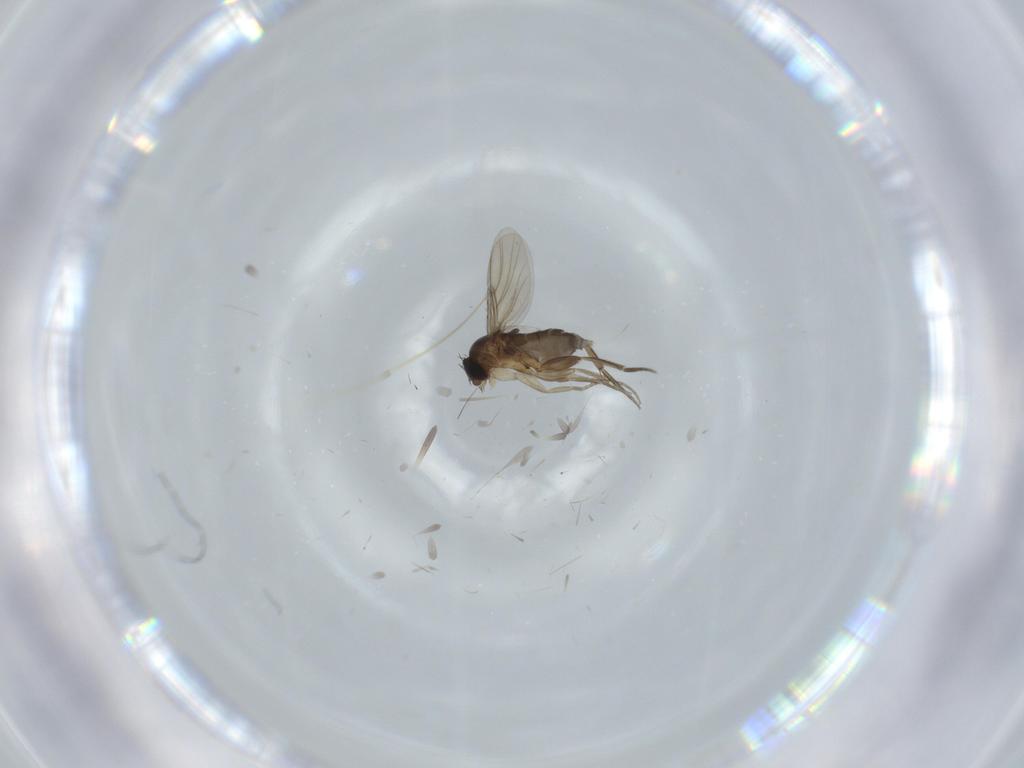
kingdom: Animalia
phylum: Arthropoda
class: Insecta
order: Diptera
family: Phoridae
